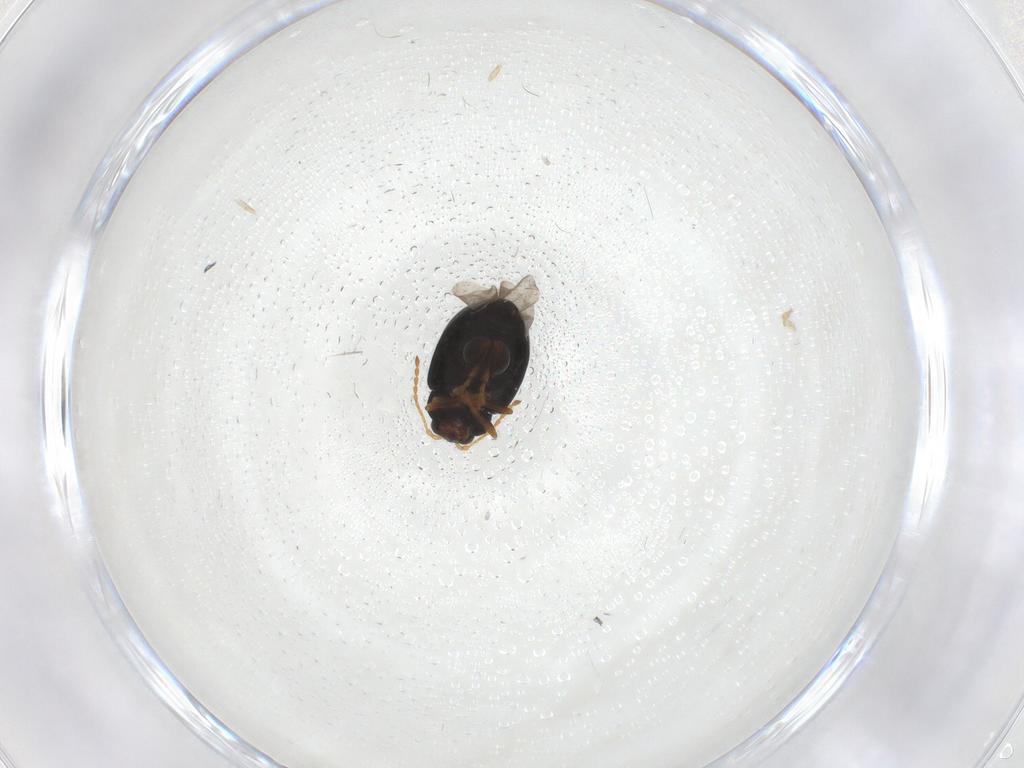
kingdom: Animalia
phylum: Arthropoda
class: Insecta
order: Coleoptera
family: Chrysomelidae
